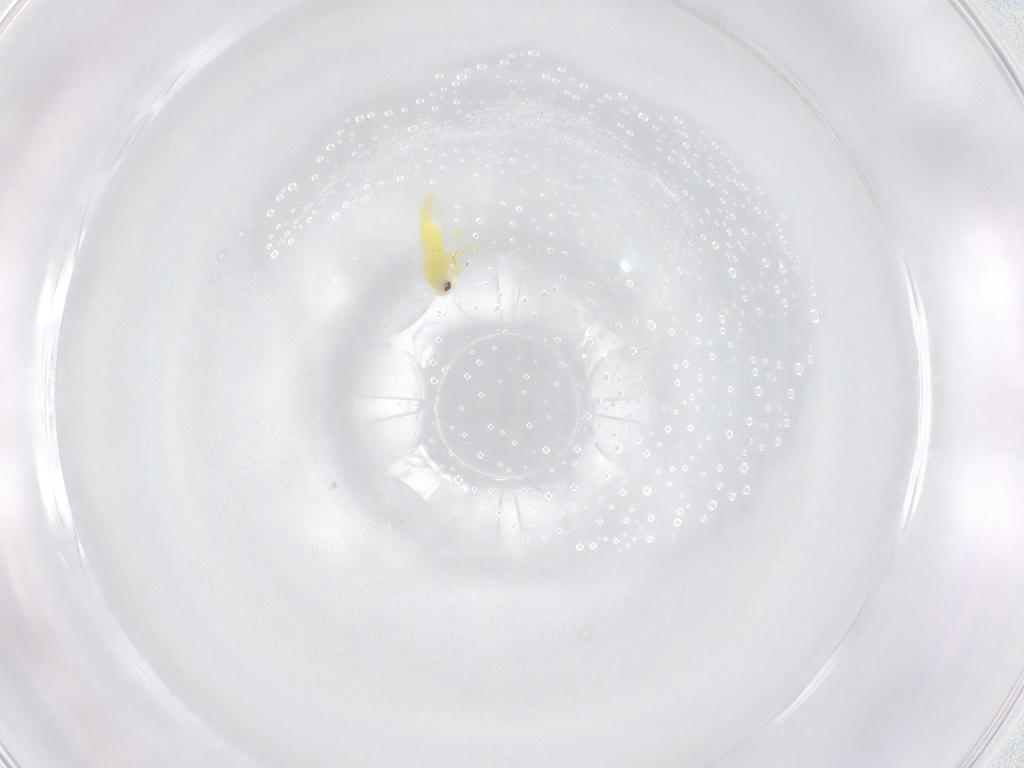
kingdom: Animalia
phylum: Arthropoda
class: Insecta
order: Hemiptera
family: Aleyrodidae
